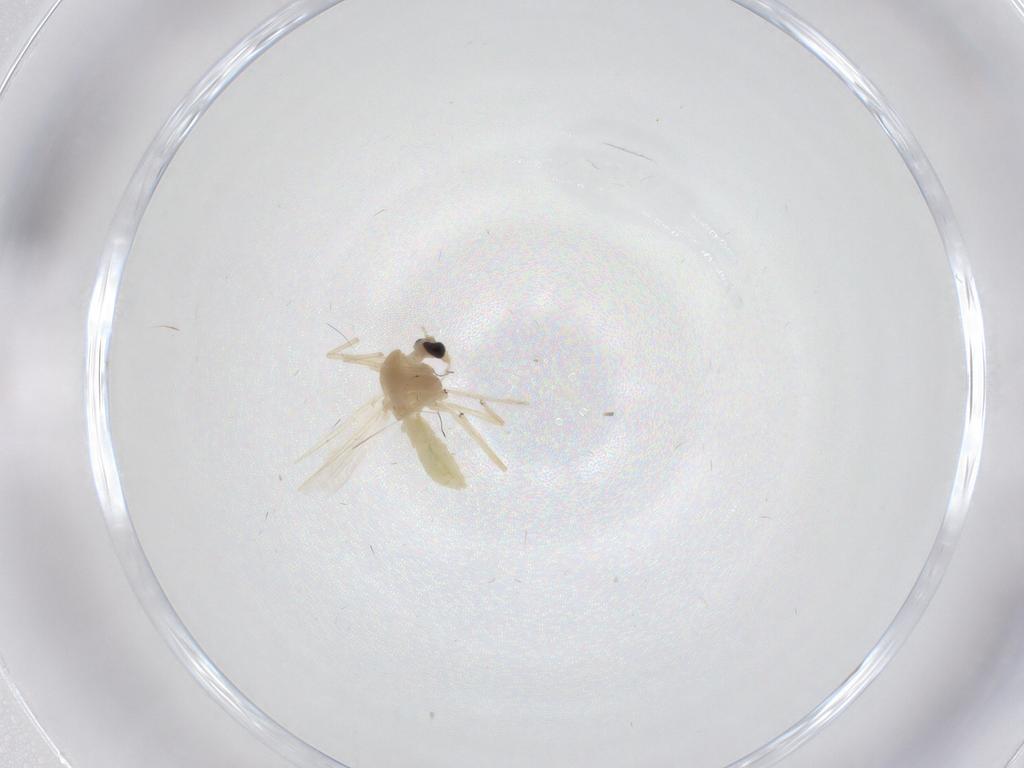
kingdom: Animalia
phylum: Arthropoda
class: Insecta
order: Diptera
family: Chironomidae
